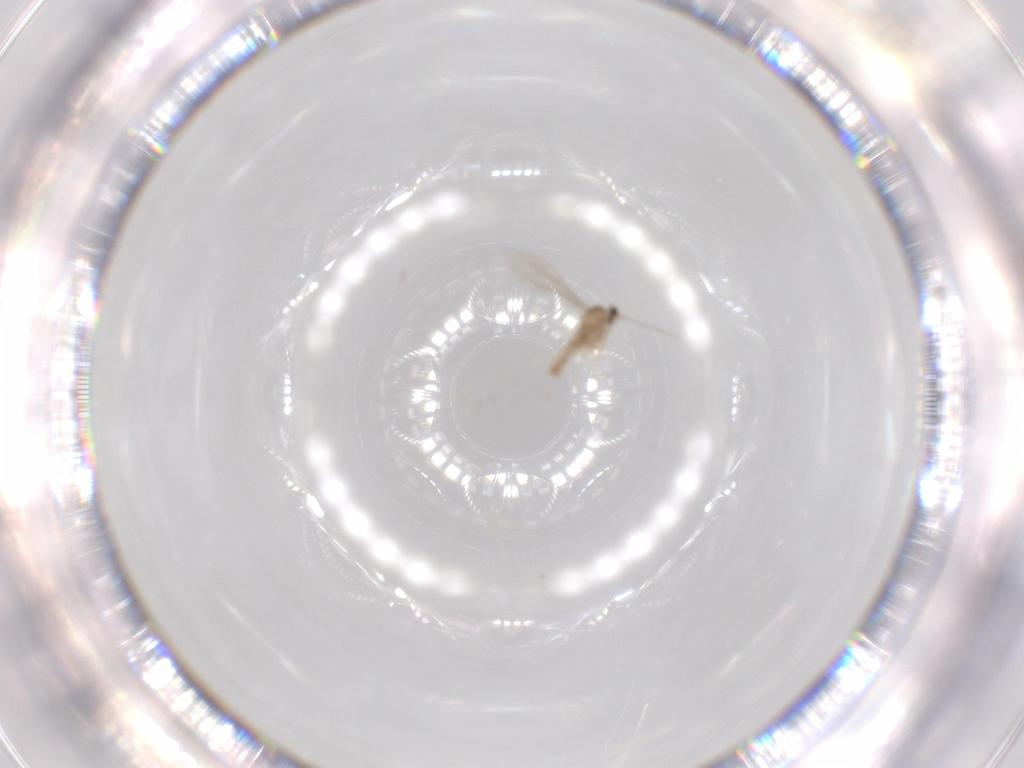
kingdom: Animalia
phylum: Arthropoda
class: Insecta
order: Diptera
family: Cecidomyiidae
